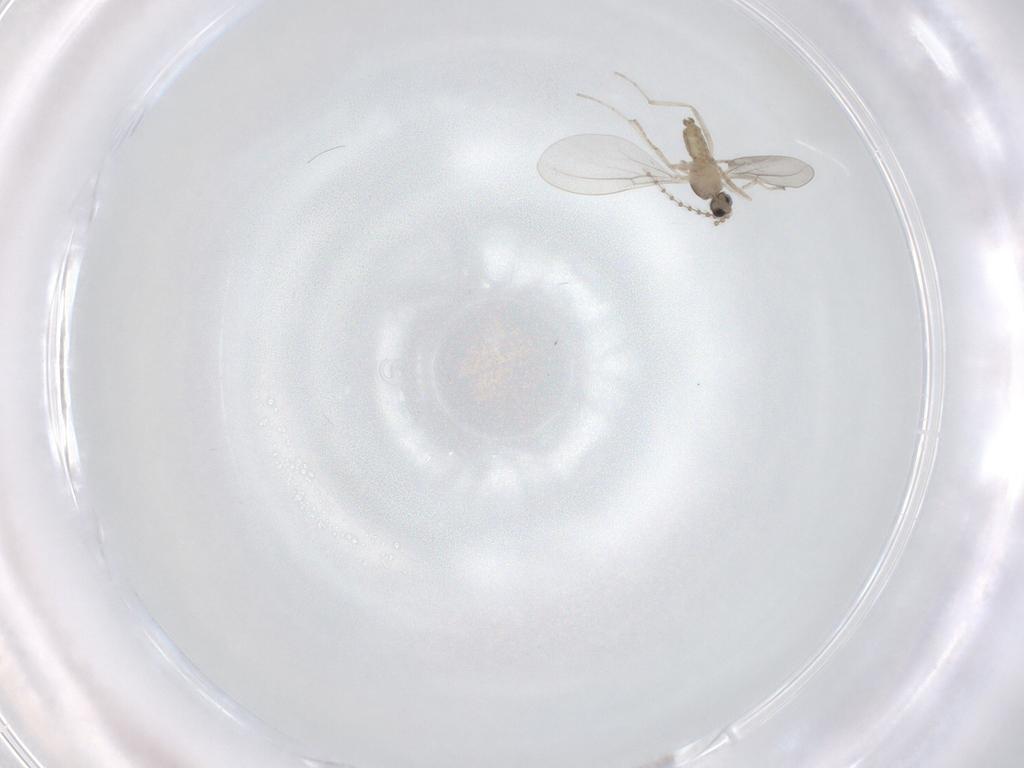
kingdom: Animalia
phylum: Arthropoda
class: Insecta
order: Diptera
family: Cecidomyiidae
